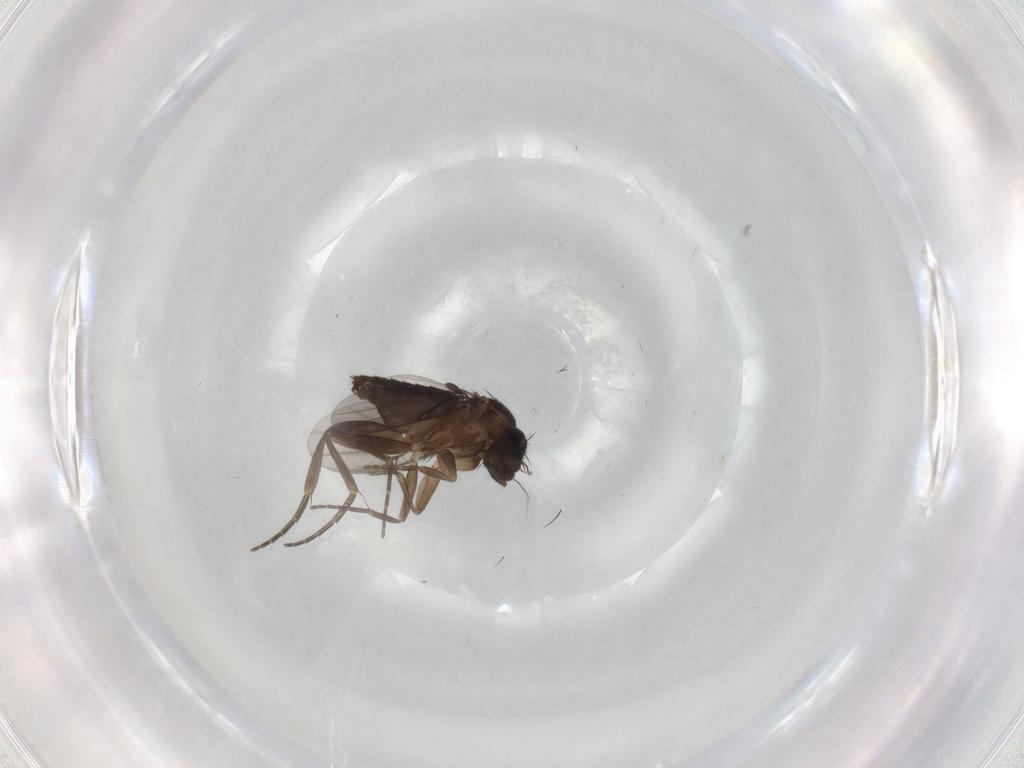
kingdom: Animalia
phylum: Arthropoda
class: Insecta
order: Diptera
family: Phoridae
